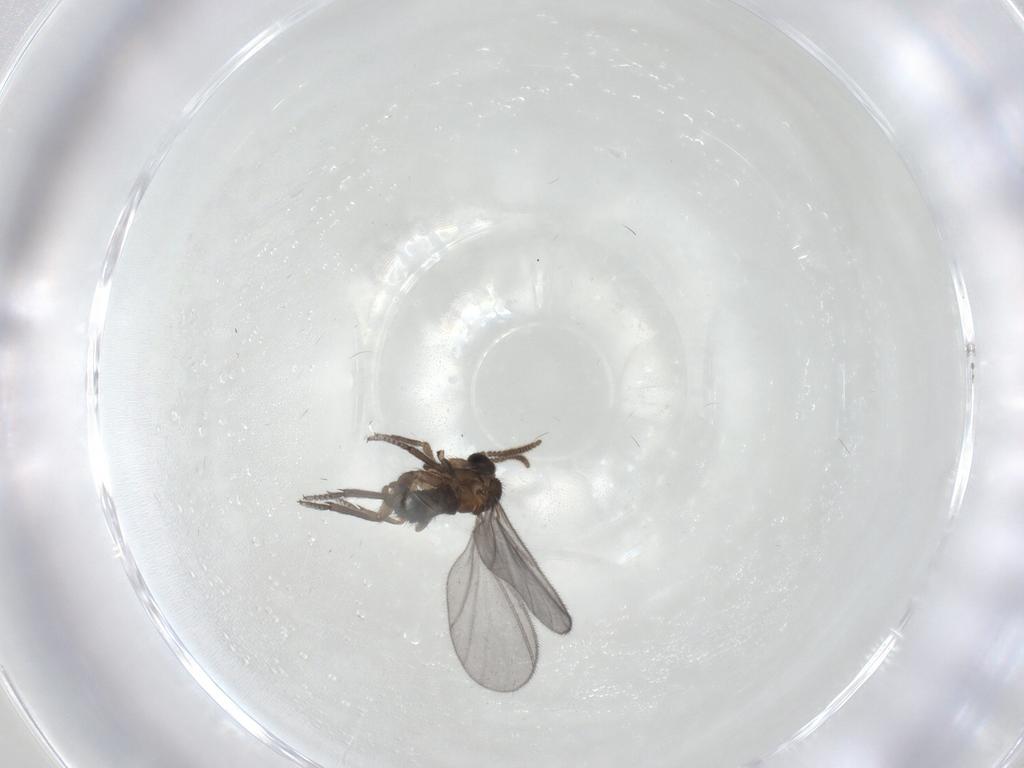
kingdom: Animalia
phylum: Arthropoda
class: Insecta
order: Diptera
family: Sciaridae
